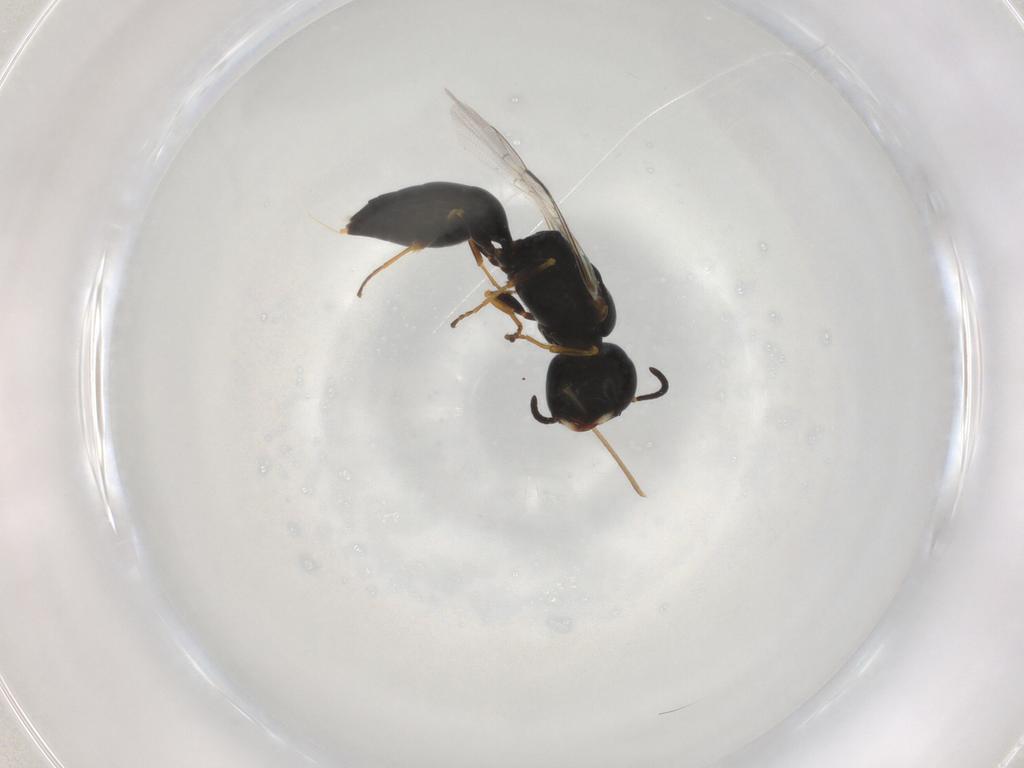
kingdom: Animalia
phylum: Arthropoda
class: Insecta
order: Hymenoptera
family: Crabronidae
